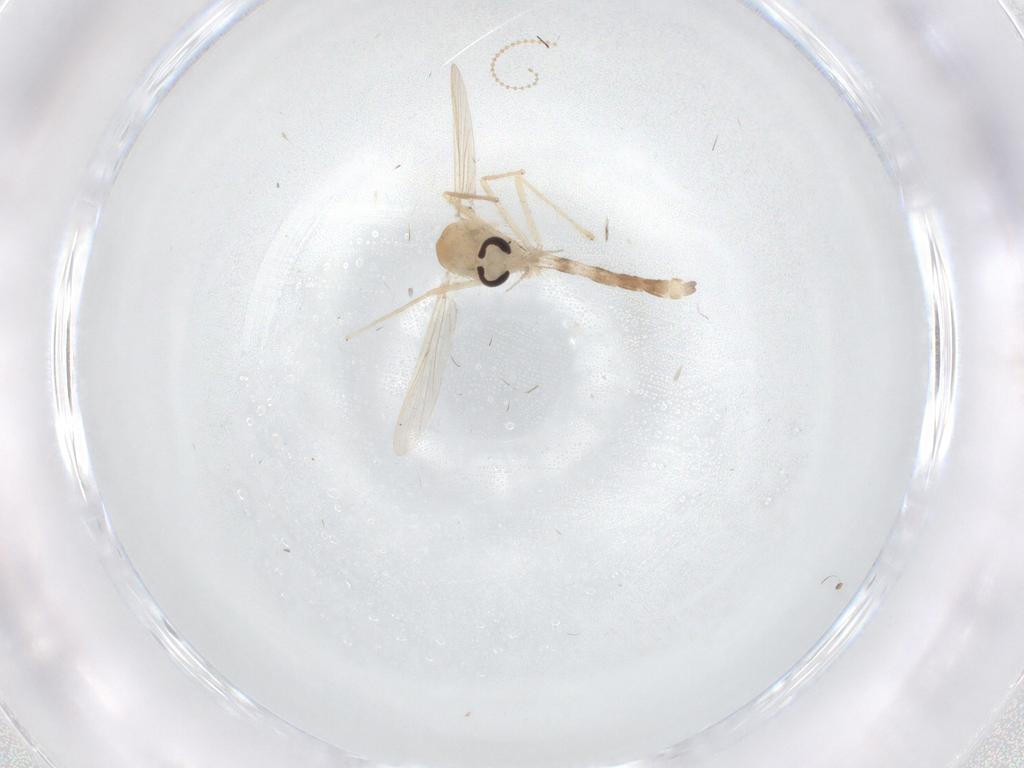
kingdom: Animalia
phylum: Arthropoda
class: Insecta
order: Diptera
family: Chironomidae
